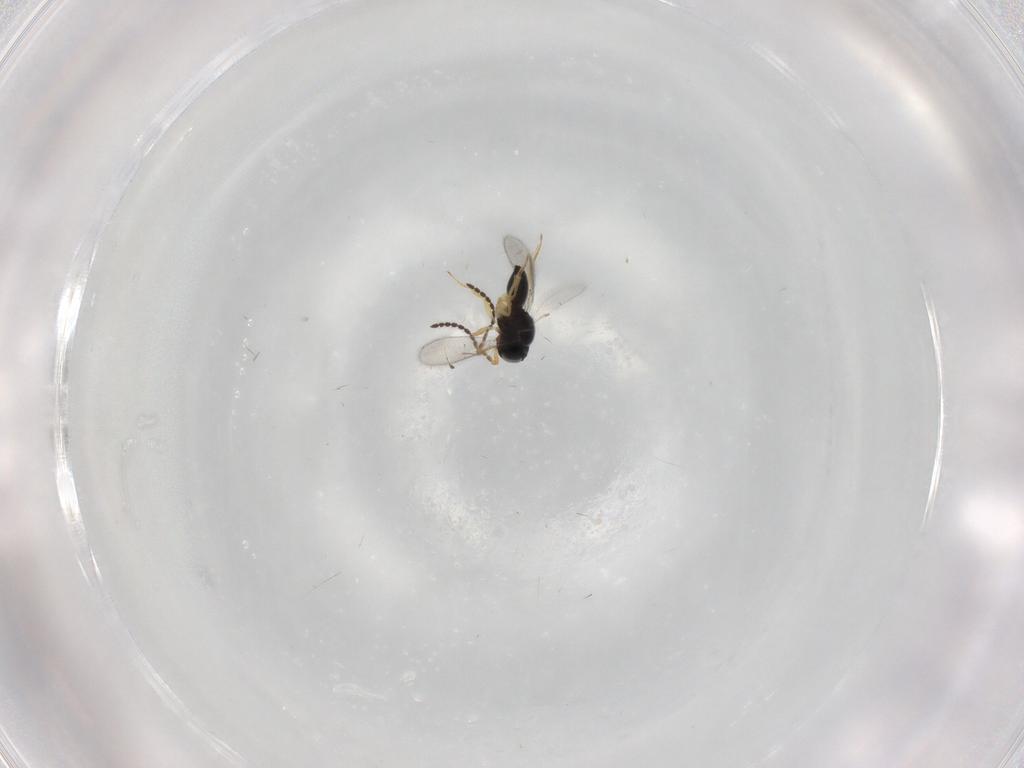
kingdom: Animalia
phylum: Arthropoda
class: Insecta
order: Hymenoptera
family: Scelionidae
